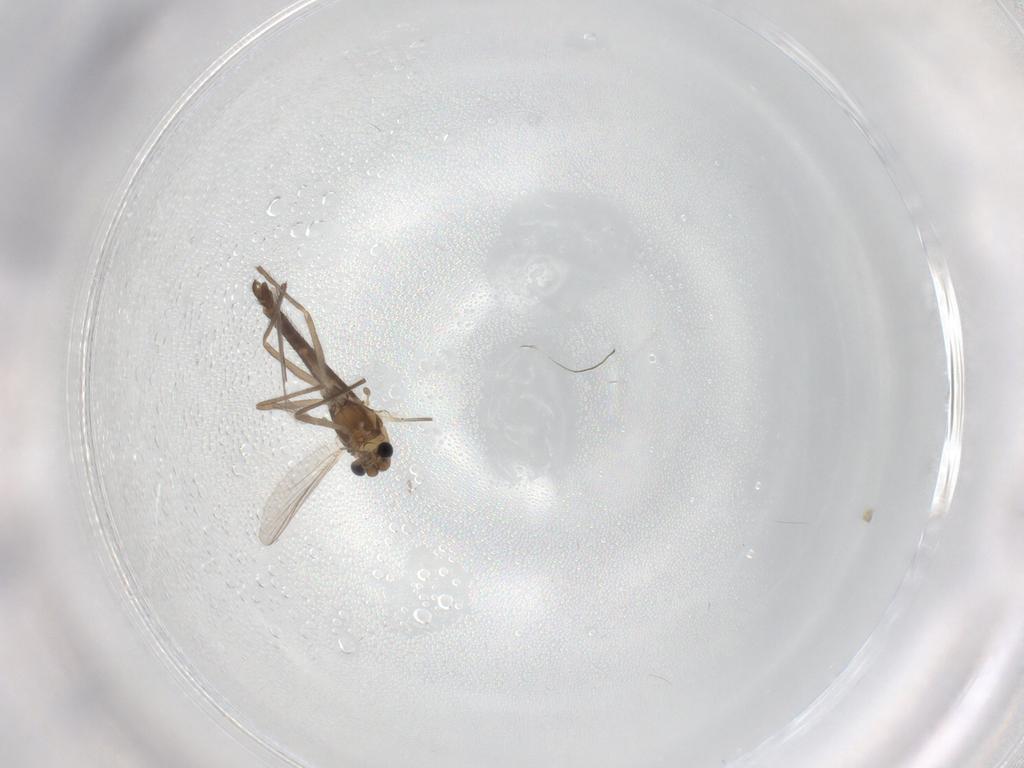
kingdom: Animalia
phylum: Arthropoda
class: Insecta
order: Diptera
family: Chironomidae
